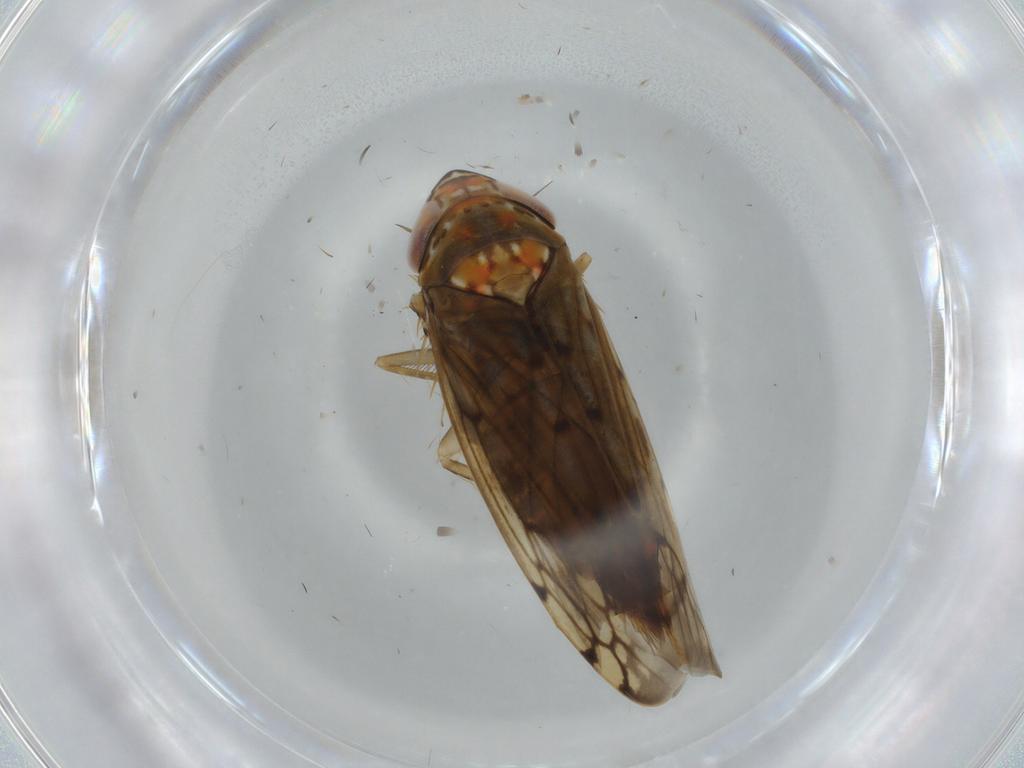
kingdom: Animalia
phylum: Arthropoda
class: Insecta
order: Hemiptera
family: Cicadellidae
